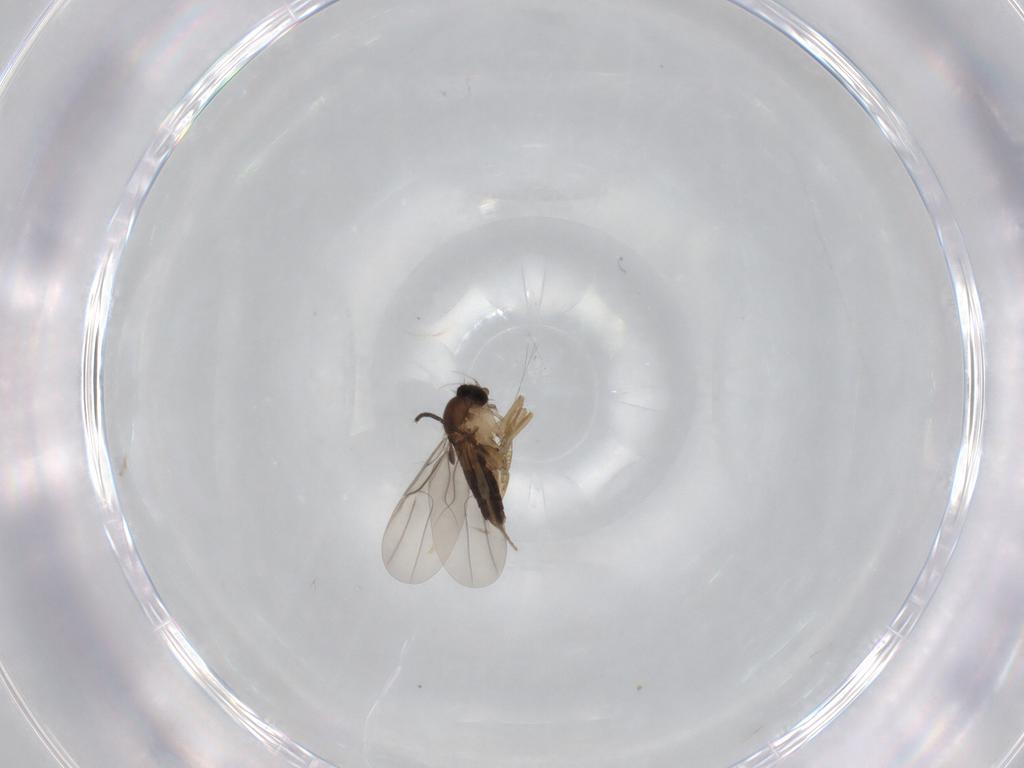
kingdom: Animalia
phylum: Arthropoda
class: Insecta
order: Diptera
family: Phoridae
